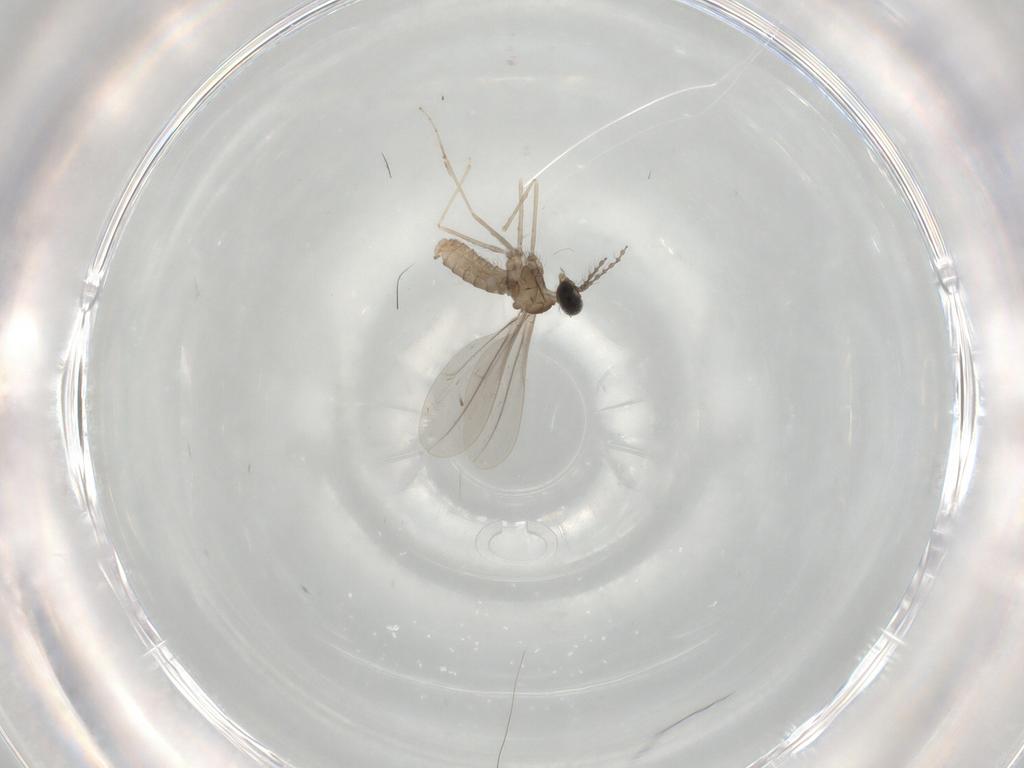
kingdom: Animalia
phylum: Arthropoda
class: Insecta
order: Diptera
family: Cecidomyiidae
